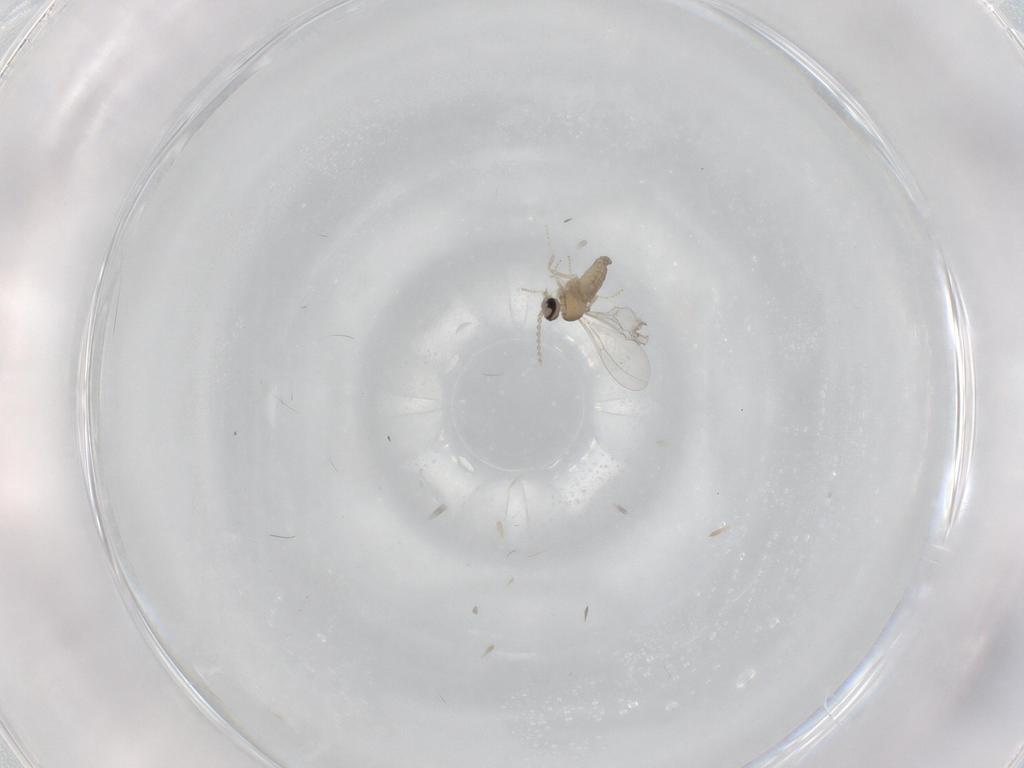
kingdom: Animalia
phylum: Arthropoda
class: Insecta
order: Diptera
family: Cecidomyiidae
